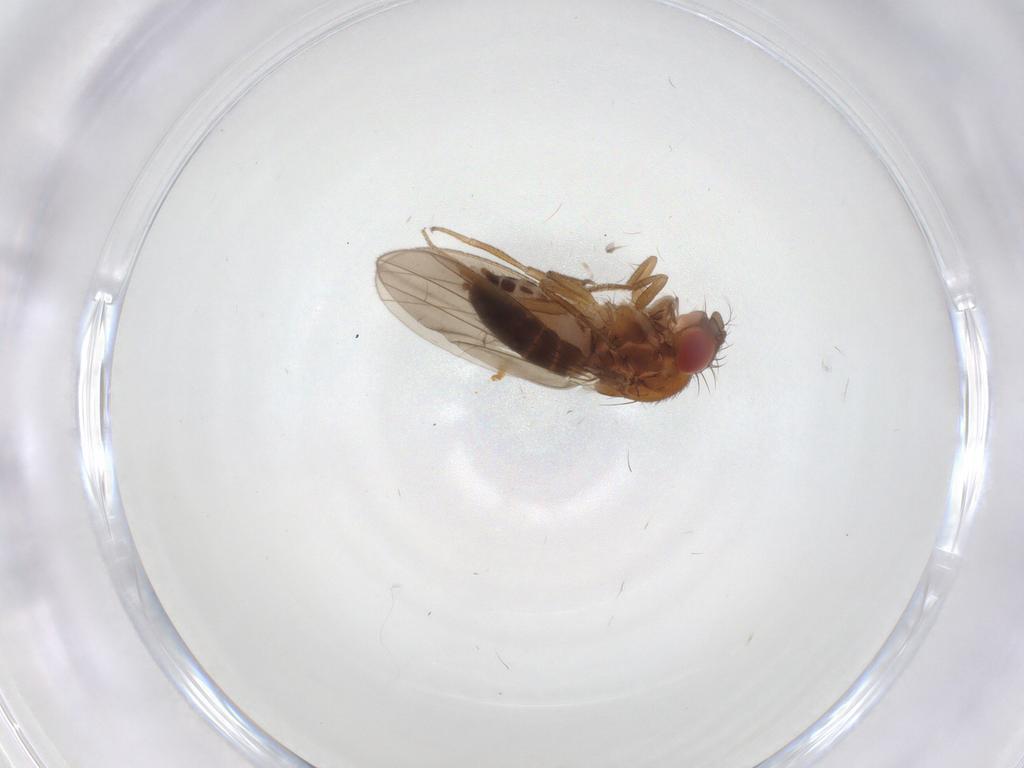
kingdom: Animalia
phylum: Arthropoda
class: Insecta
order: Diptera
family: Drosophilidae
